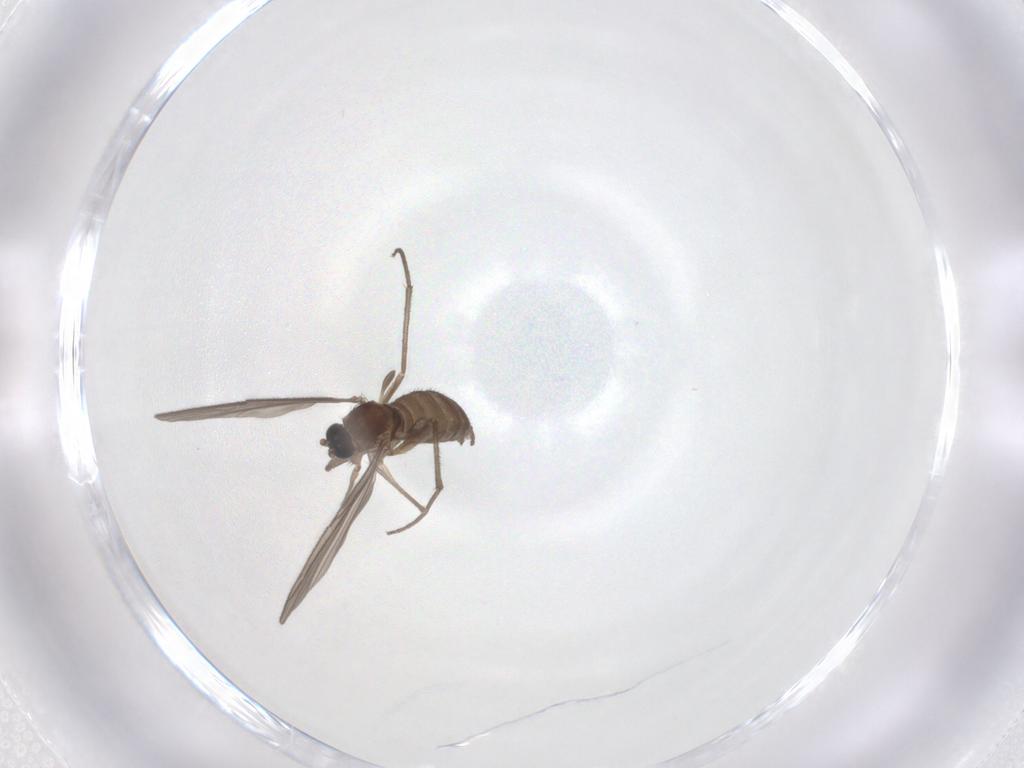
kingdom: Animalia
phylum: Arthropoda
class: Insecta
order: Diptera
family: Sciaridae
